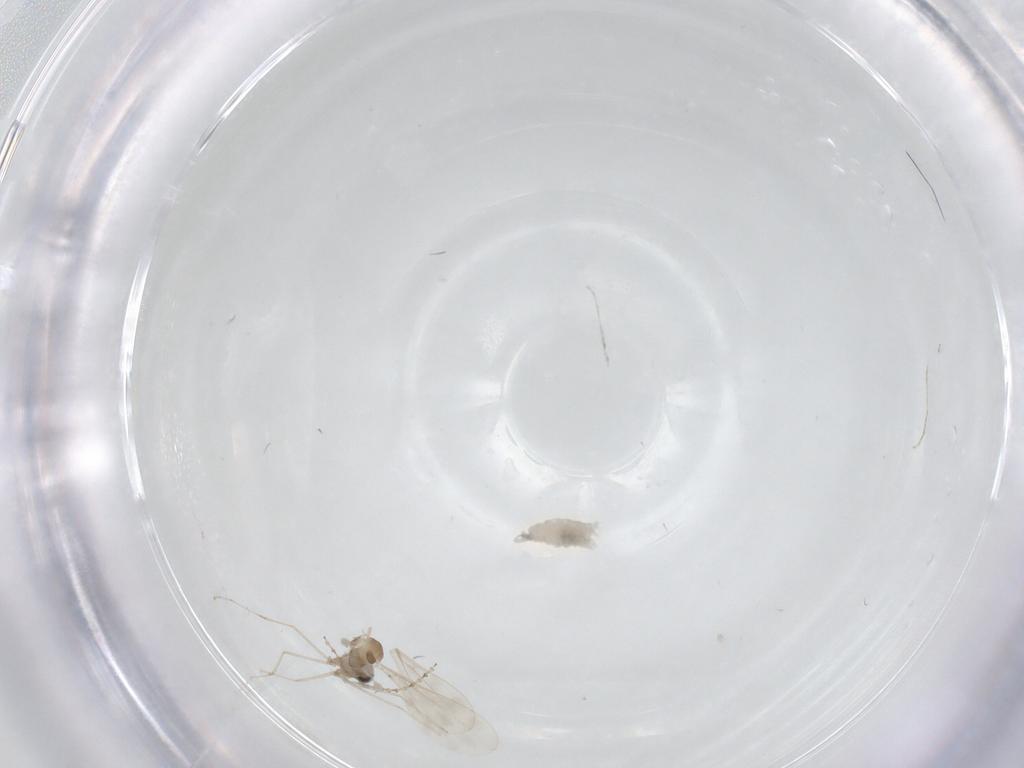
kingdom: Animalia
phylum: Arthropoda
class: Insecta
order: Diptera
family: Cecidomyiidae
